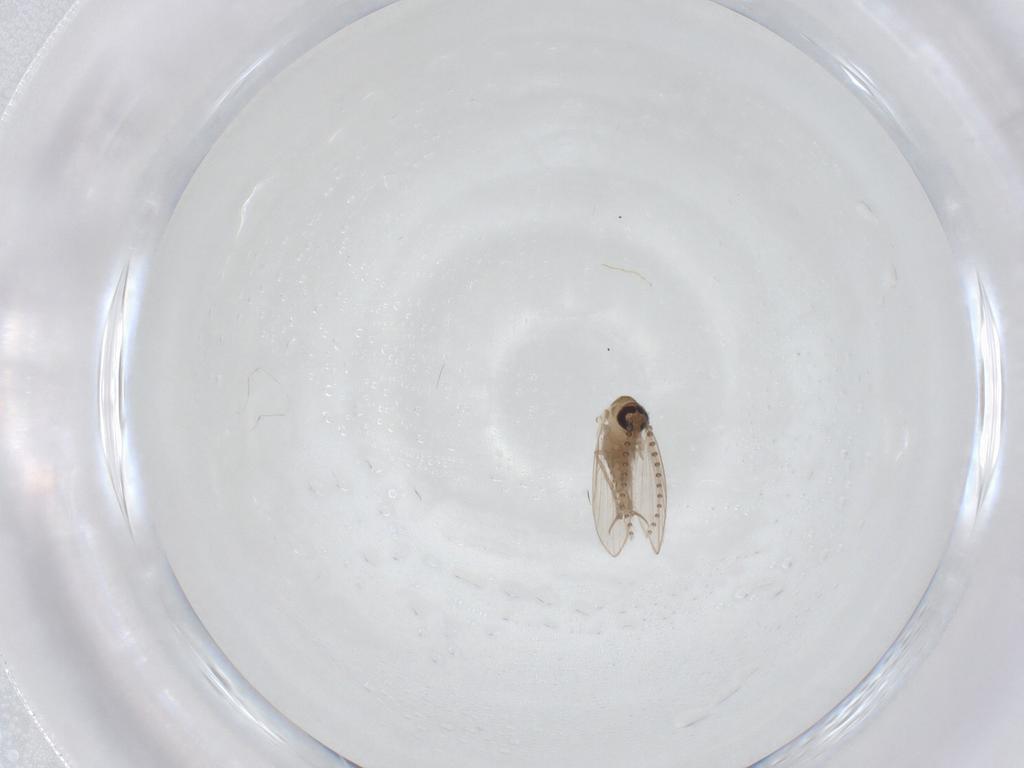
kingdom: Animalia
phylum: Arthropoda
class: Insecta
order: Diptera
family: Psychodidae
